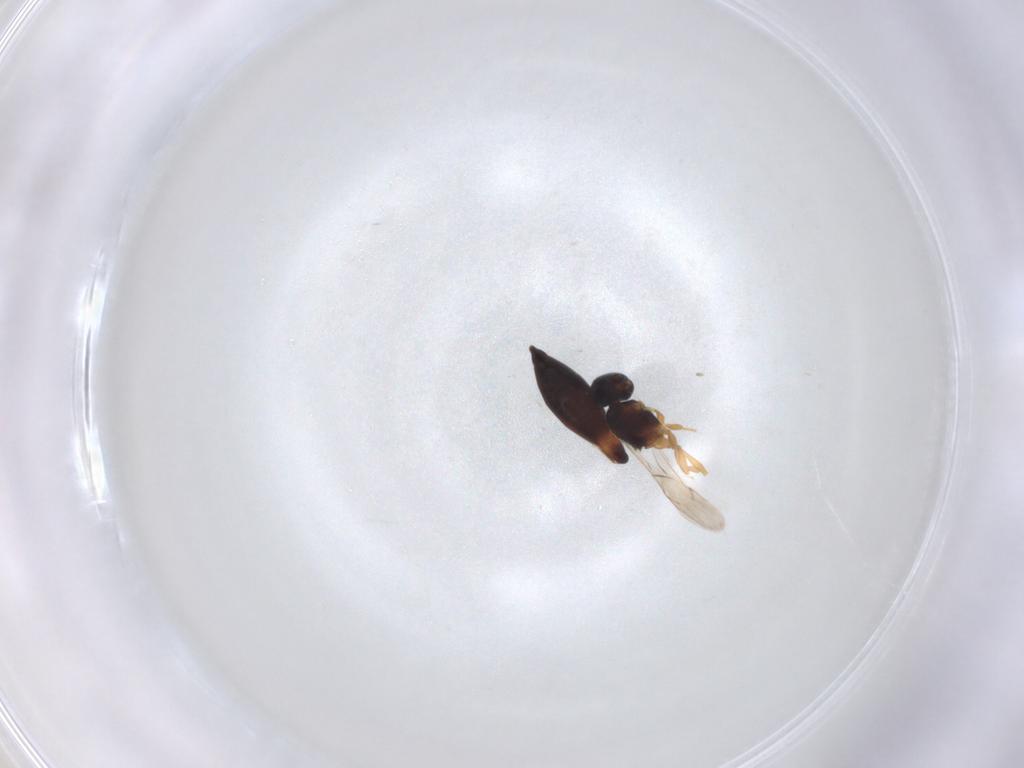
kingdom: Animalia
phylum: Arthropoda
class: Insecta
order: Hymenoptera
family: Scelionidae
